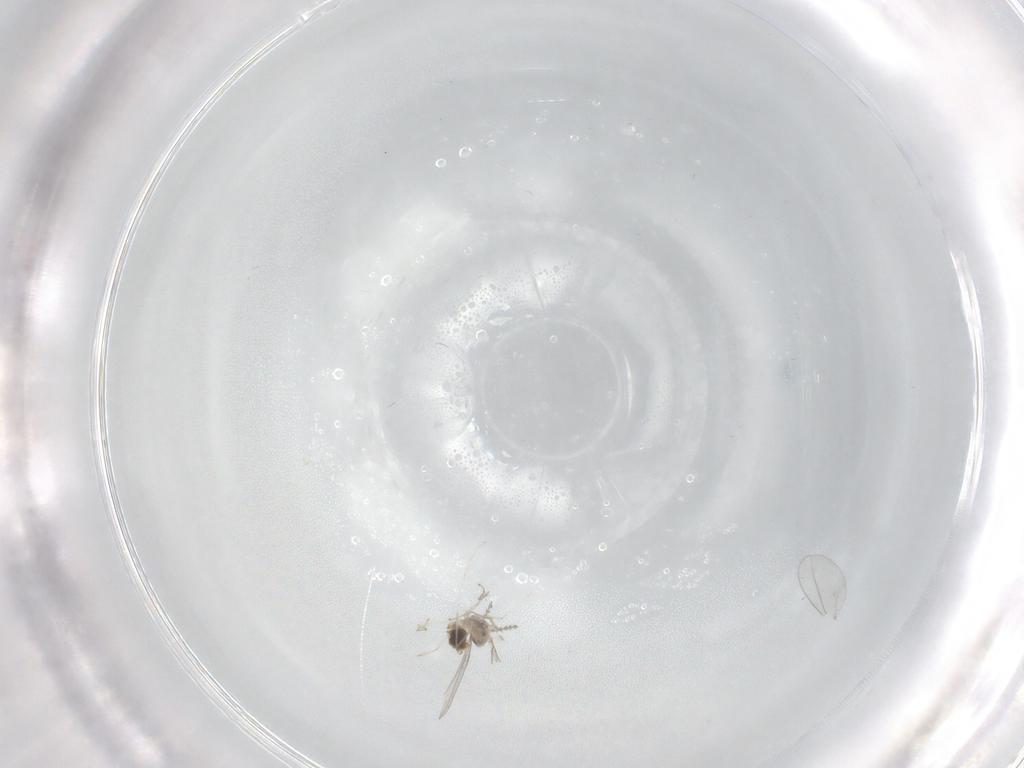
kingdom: Animalia
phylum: Arthropoda
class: Insecta
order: Diptera
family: Cecidomyiidae
